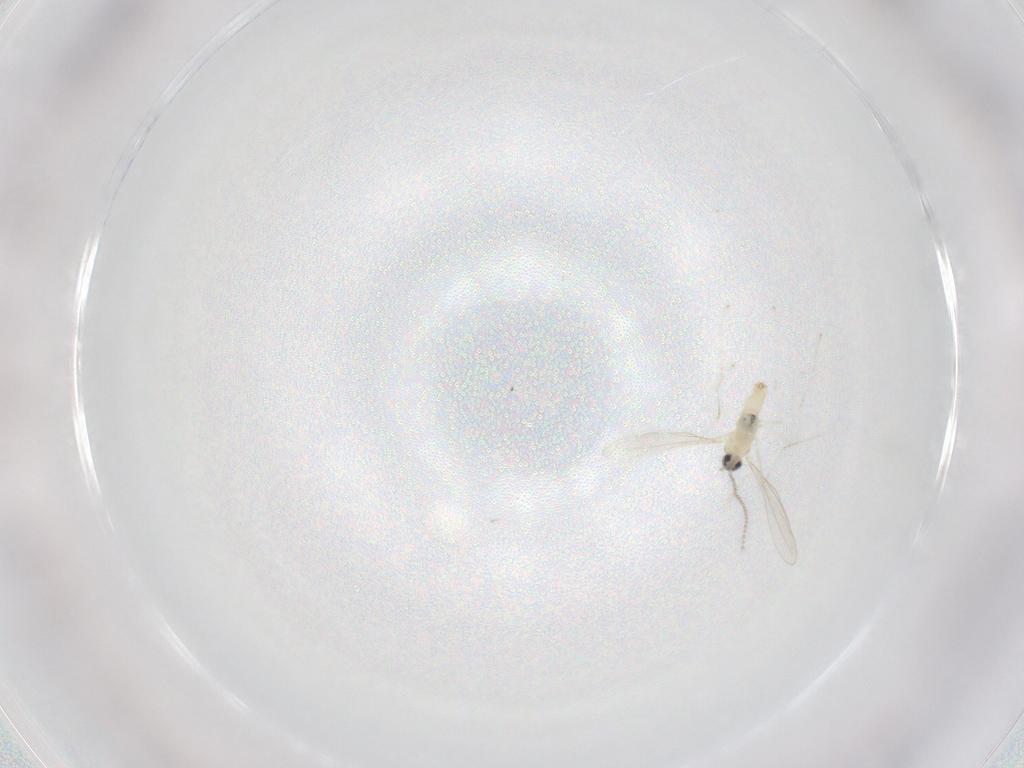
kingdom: Animalia
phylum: Arthropoda
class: Insecta
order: Diptera
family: Cecidomyiidae
